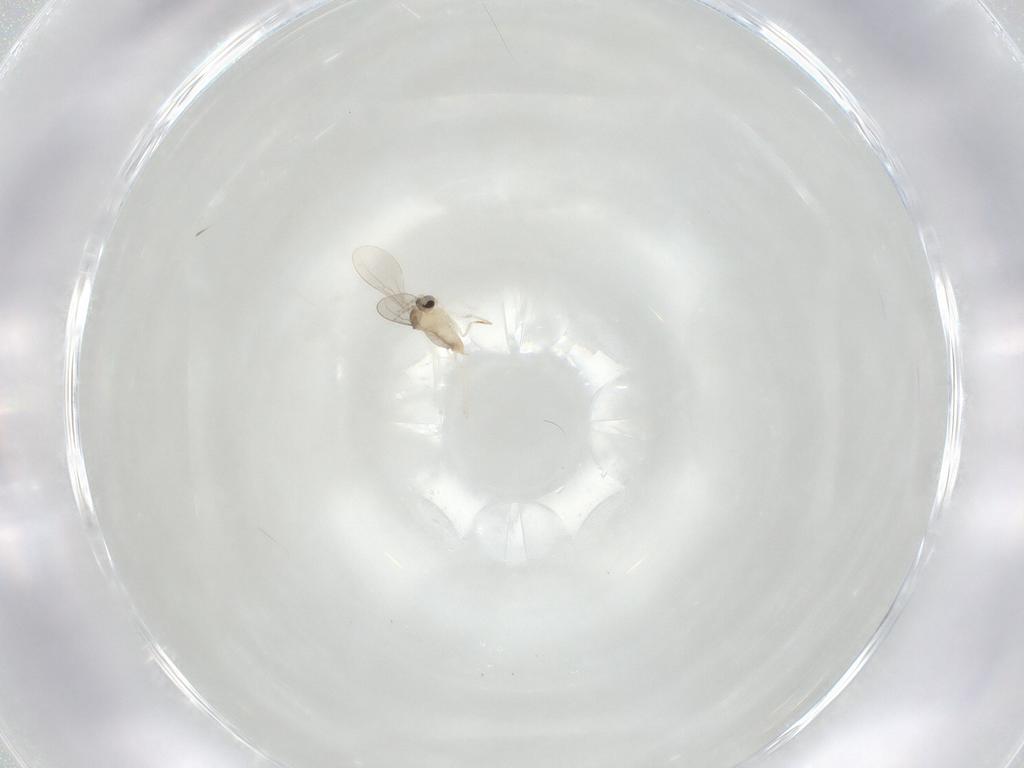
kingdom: Animalia
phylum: Arthropoda
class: Insecta
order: Diptera
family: Cecidomyiidae
